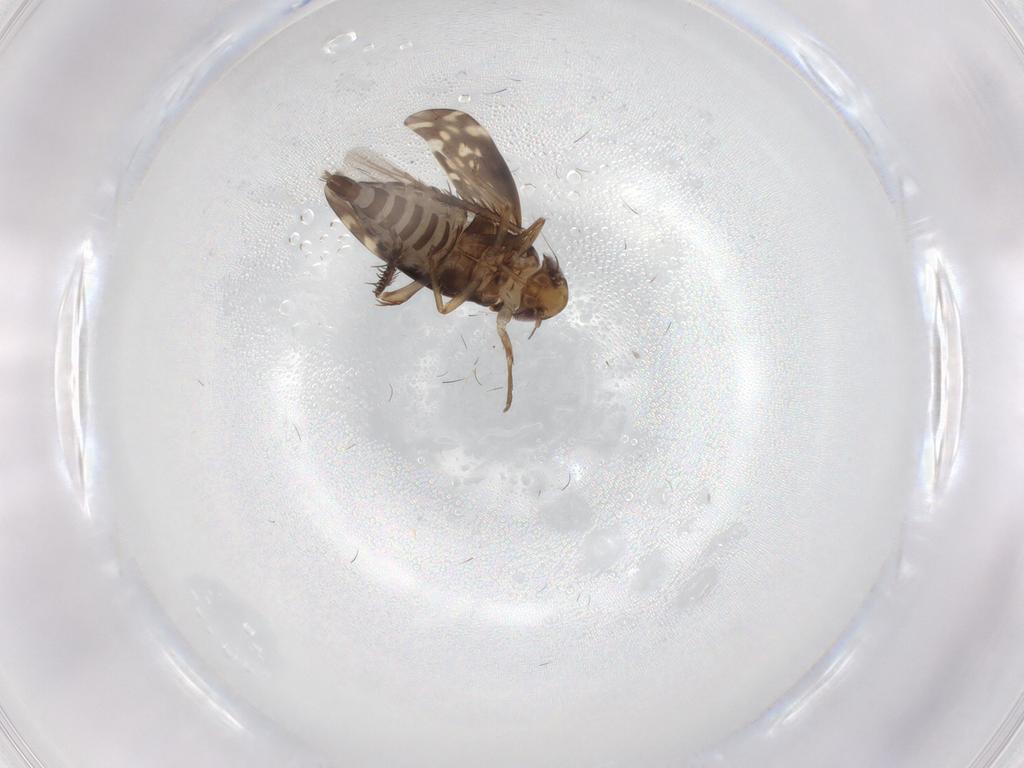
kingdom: Animalia
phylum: Arthropoda
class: Insecta
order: Hemiptera
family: Cicadellidae
